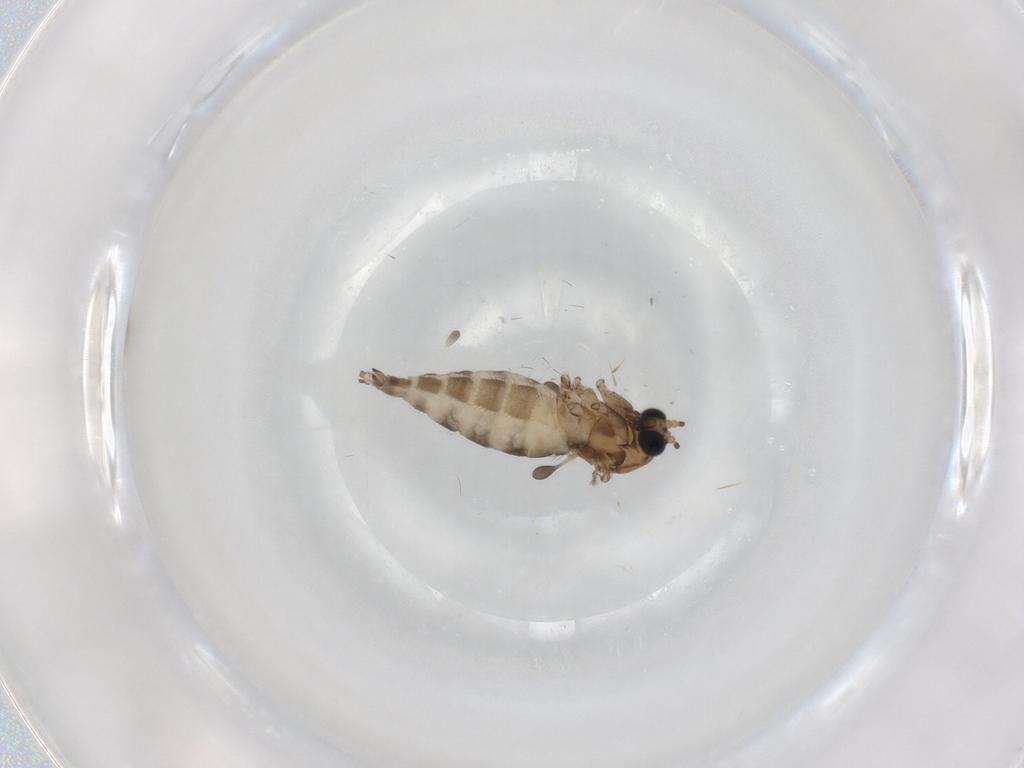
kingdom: Animalia
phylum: Arthropoda
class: Insecta
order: Diptera
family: Sciaridae
